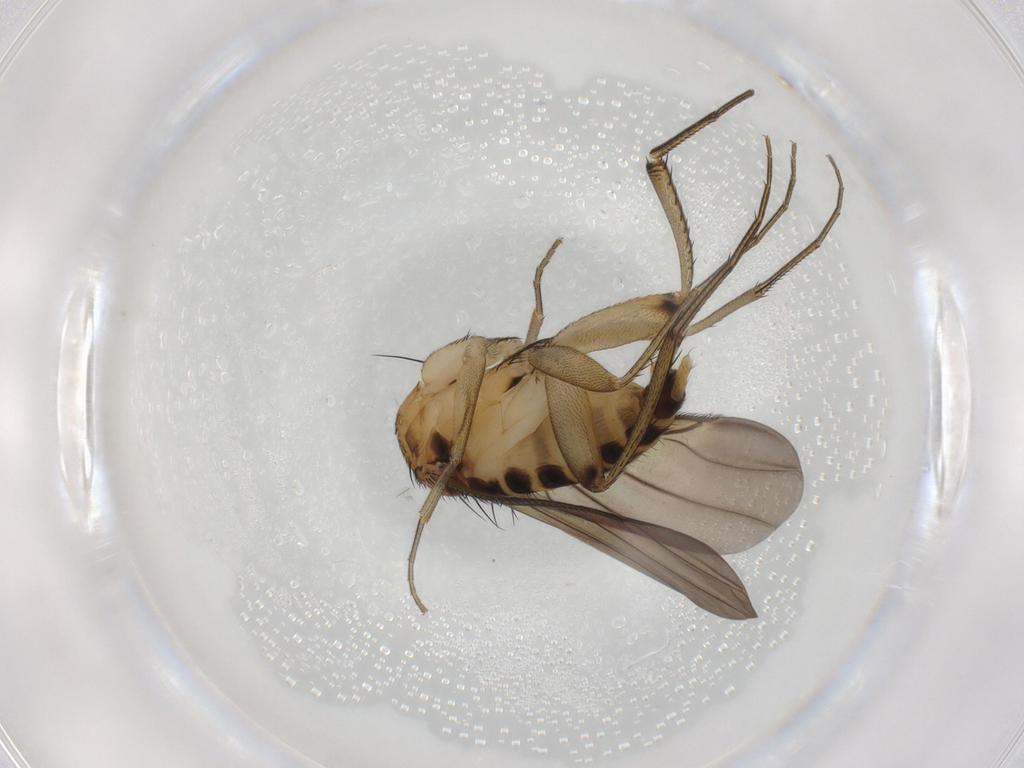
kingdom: Animalia
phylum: Arthropoda
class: Insecta
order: Diptera
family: Phoridae
